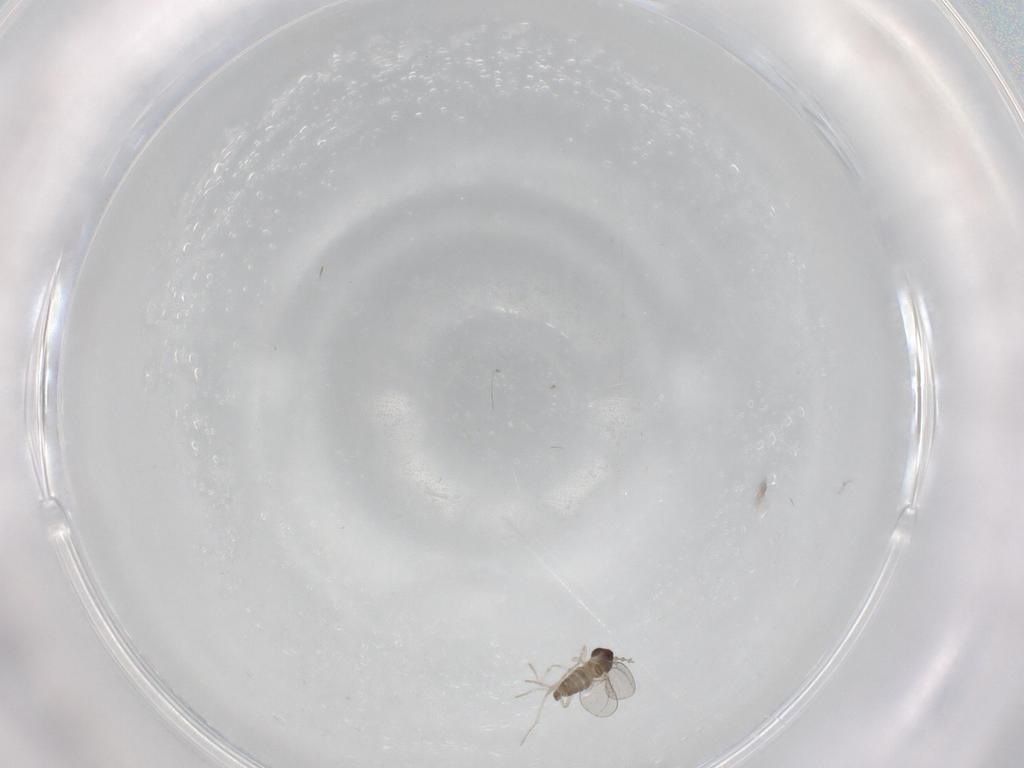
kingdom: Animalia
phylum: Arthropoda
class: Insecta
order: Diptera
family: Cecidomyiidae
